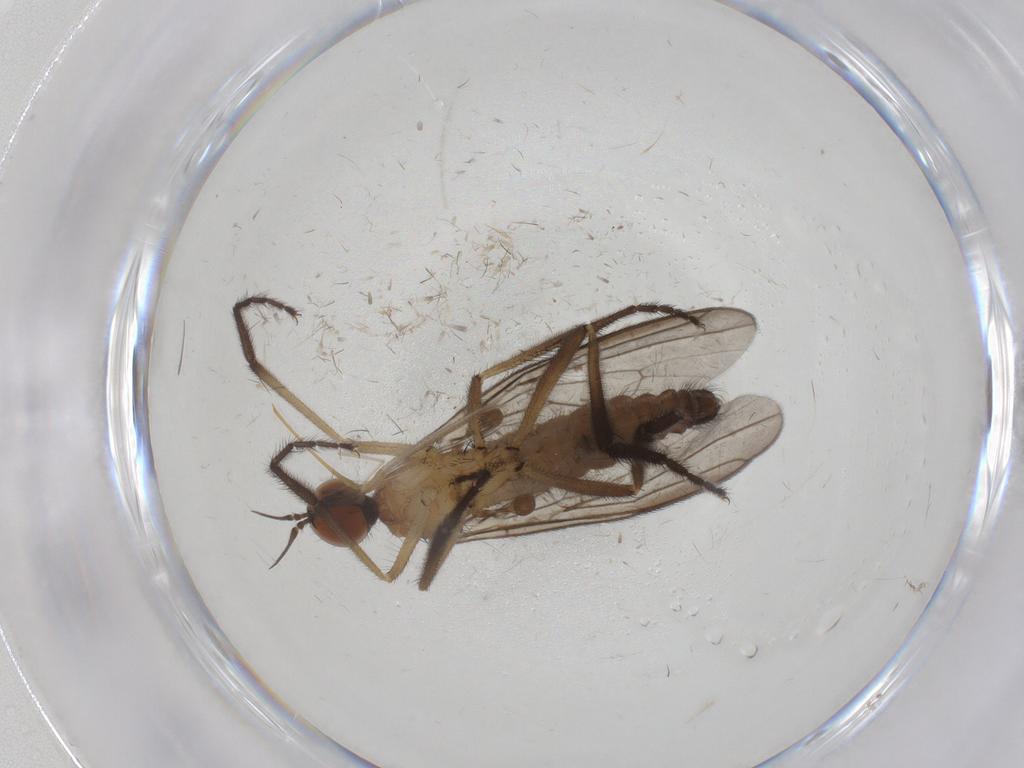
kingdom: Animalia
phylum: Arthropoda
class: Insecta
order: Diptera
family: Empididae
